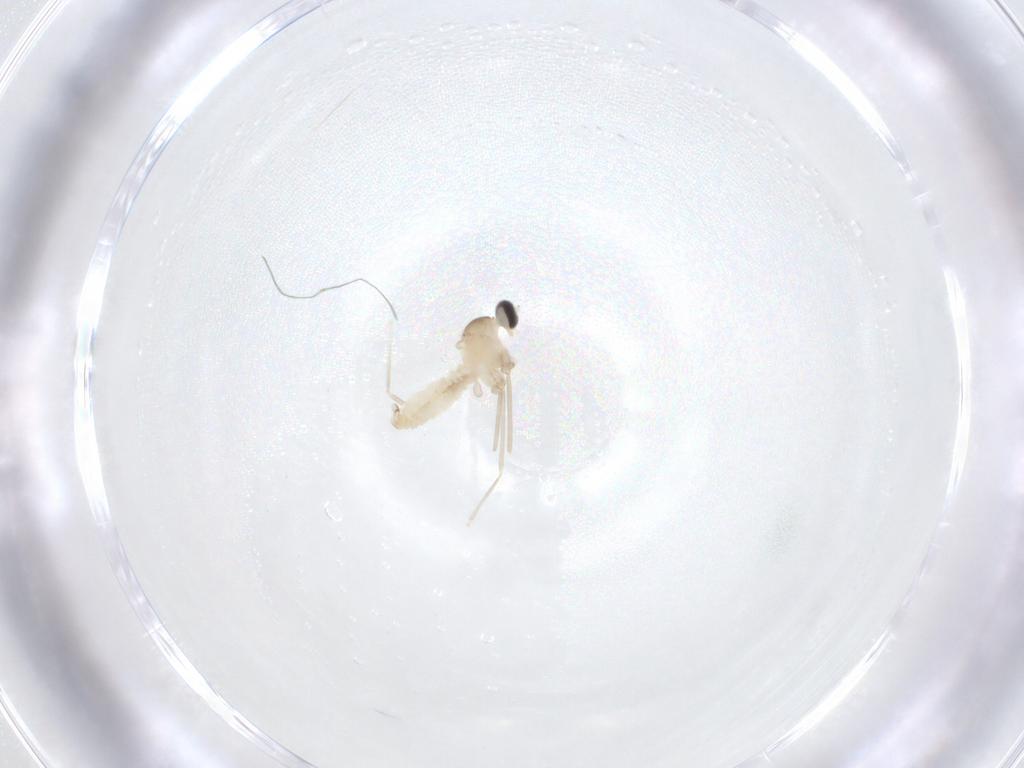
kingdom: Animalia
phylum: Arthropoda
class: Insecta
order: Diptera
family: Cecidomyiidae
